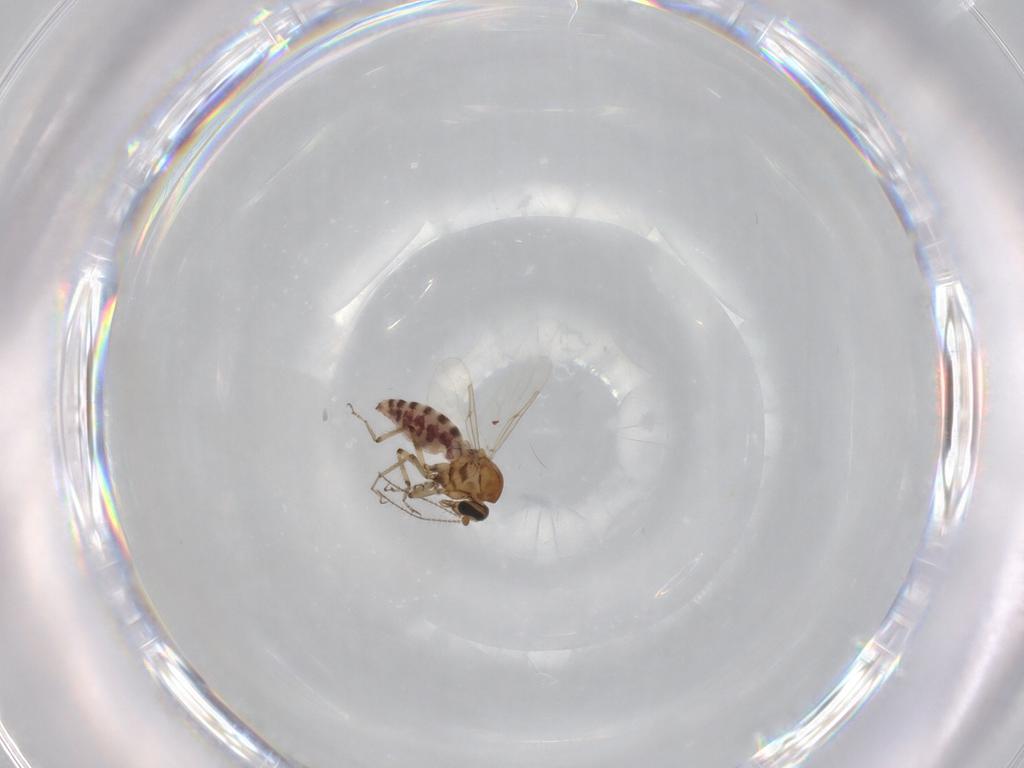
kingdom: Animalia
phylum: Arthropoda
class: Insecta
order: Diptera
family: Ceratopogonidae
